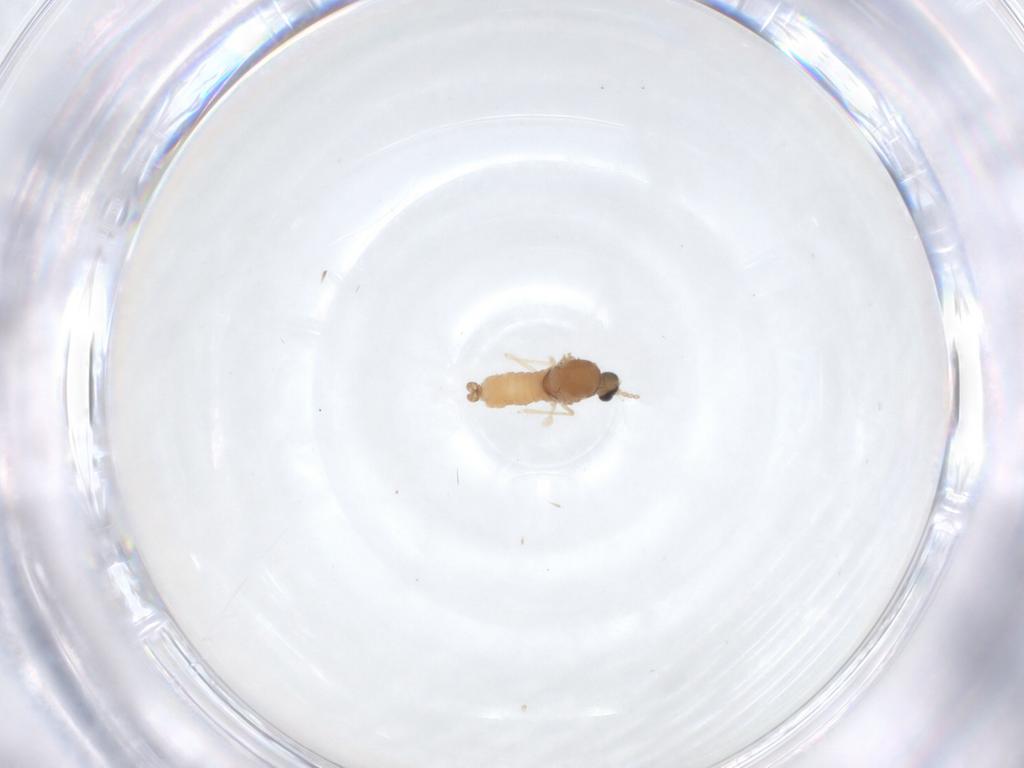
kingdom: Animalia
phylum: Arthropoda
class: Insecta
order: Diptera
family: Cecidomyiidae
